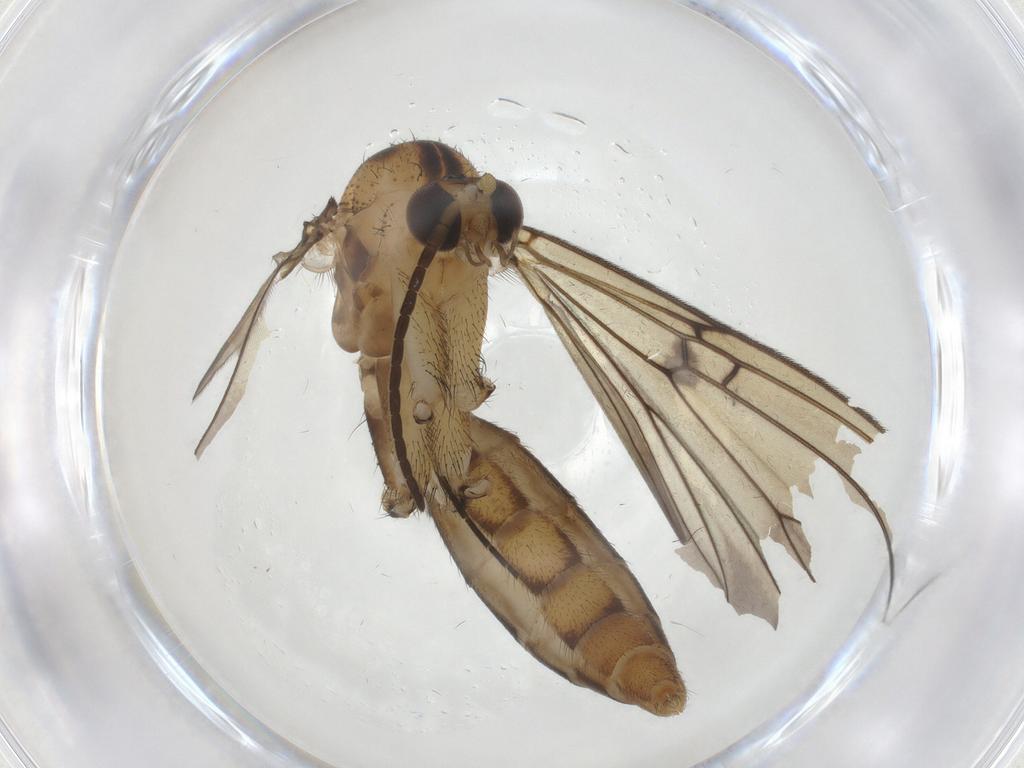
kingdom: Animalia
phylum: Arthropoda
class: Insecta
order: Diptera
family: Mycetophilidae
